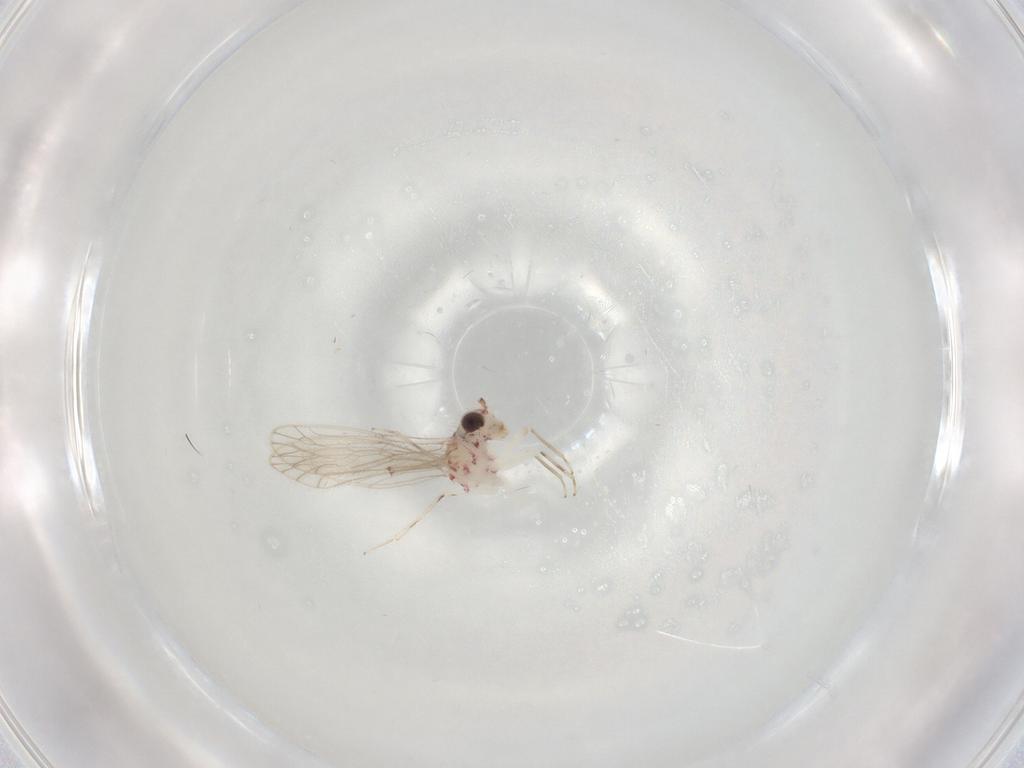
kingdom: Animalia
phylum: Arthropoda
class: Insecta
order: Psocodea
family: Caeciliusidae
